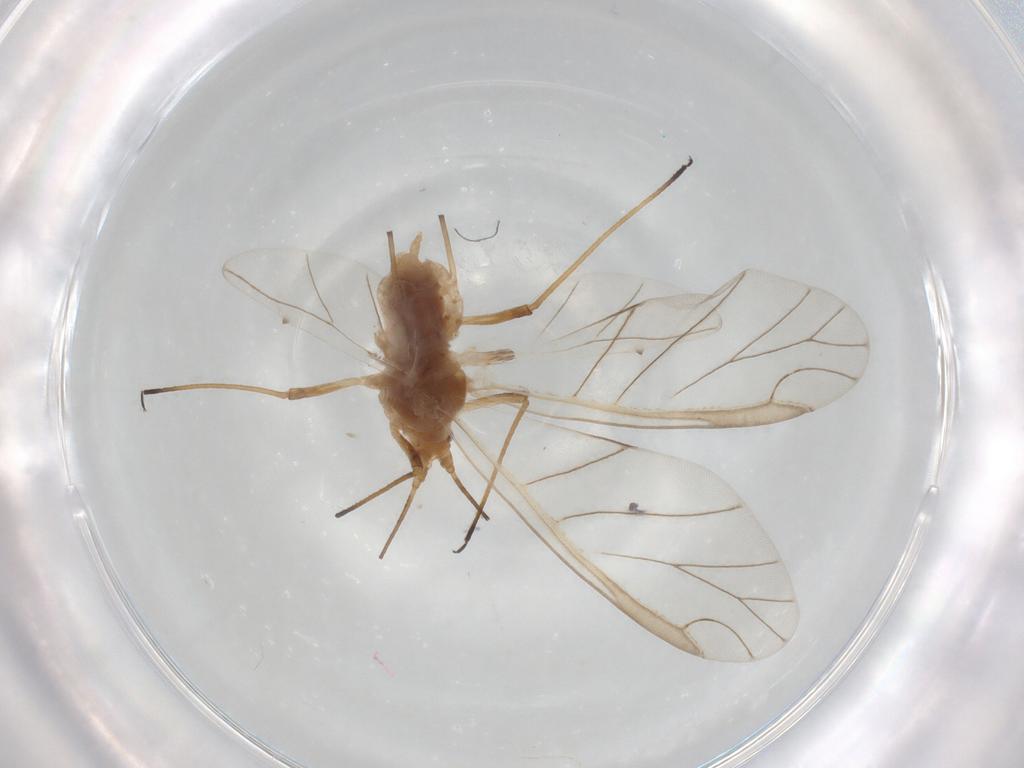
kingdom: Animalia
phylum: Arthropoda
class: Insecta
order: Hemiptera
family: Aphididae
